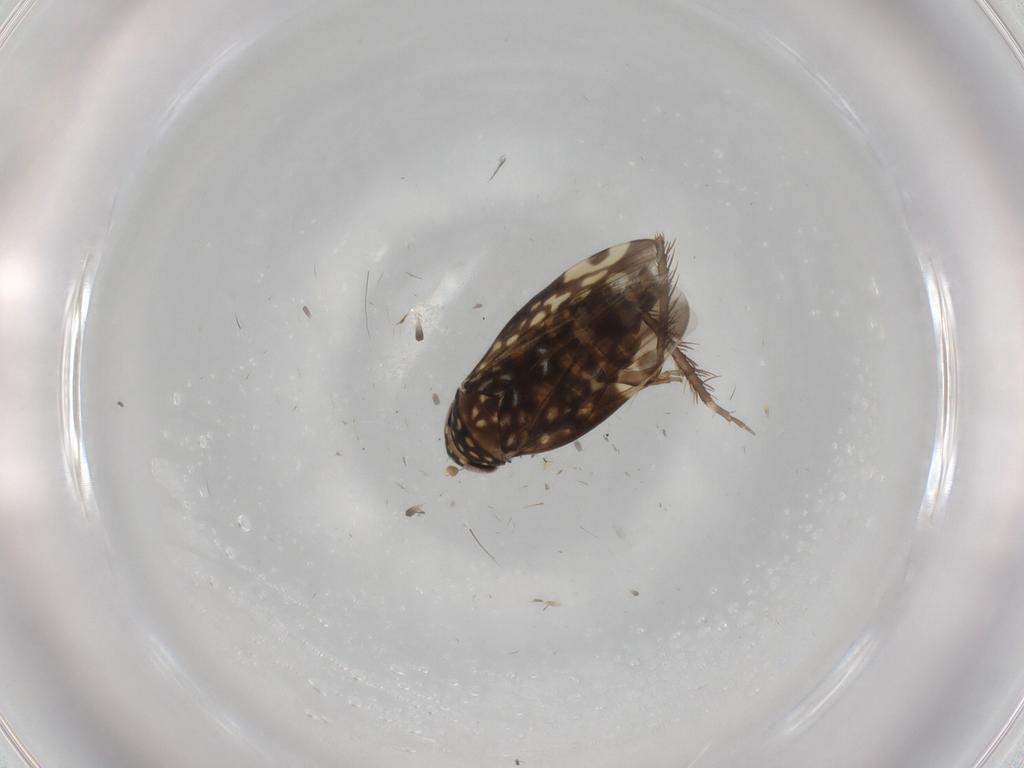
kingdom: Animalia
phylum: Arthropoda
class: Insecta
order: Hemiptera
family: Cicadellidae
